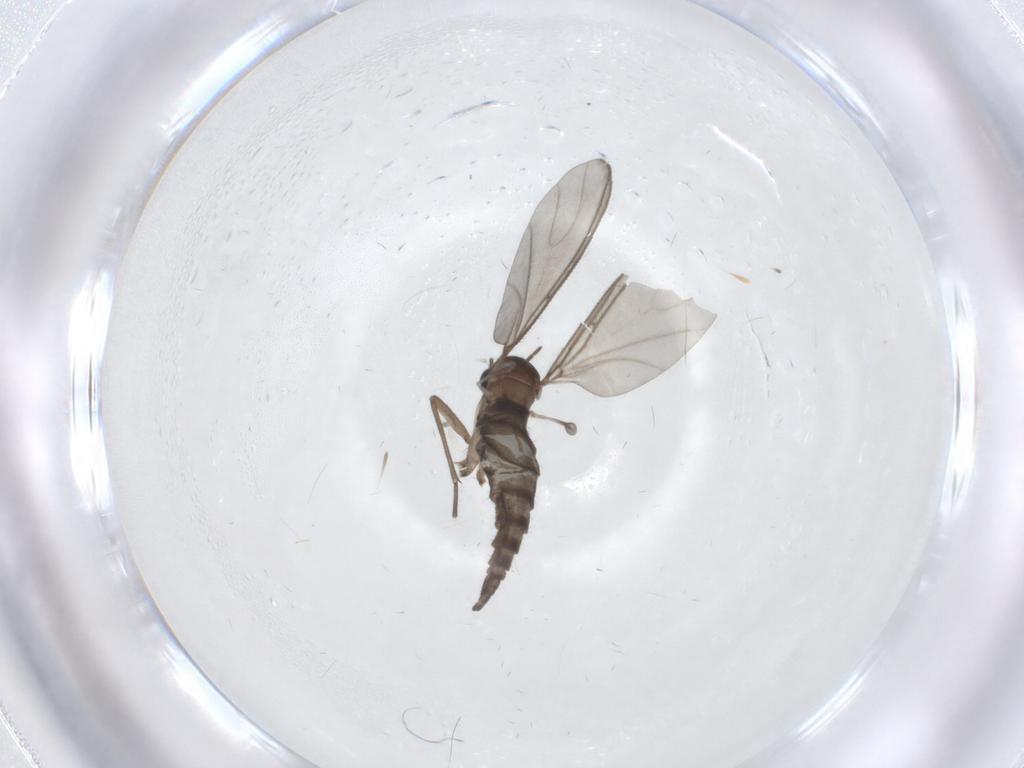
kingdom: Animalia
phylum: Arthropoda
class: Insecta
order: Diptera
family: Sciaridae
